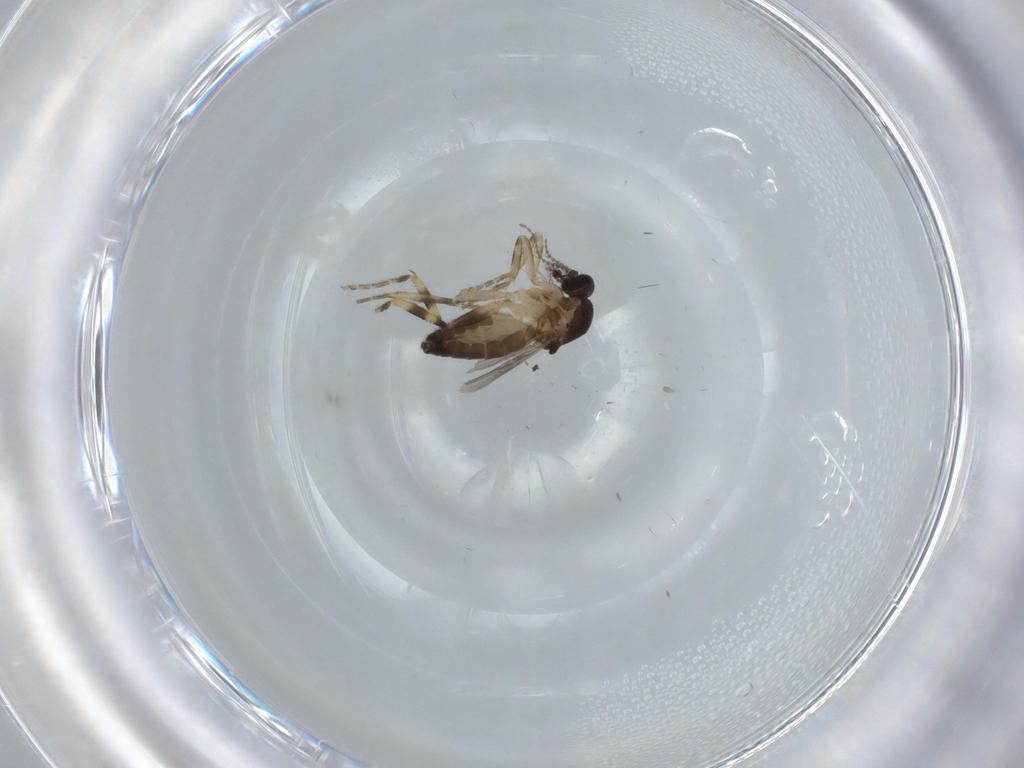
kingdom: Animalia
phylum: Arthropoda
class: Insecta
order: Diptera
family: Ceratopogonidae
